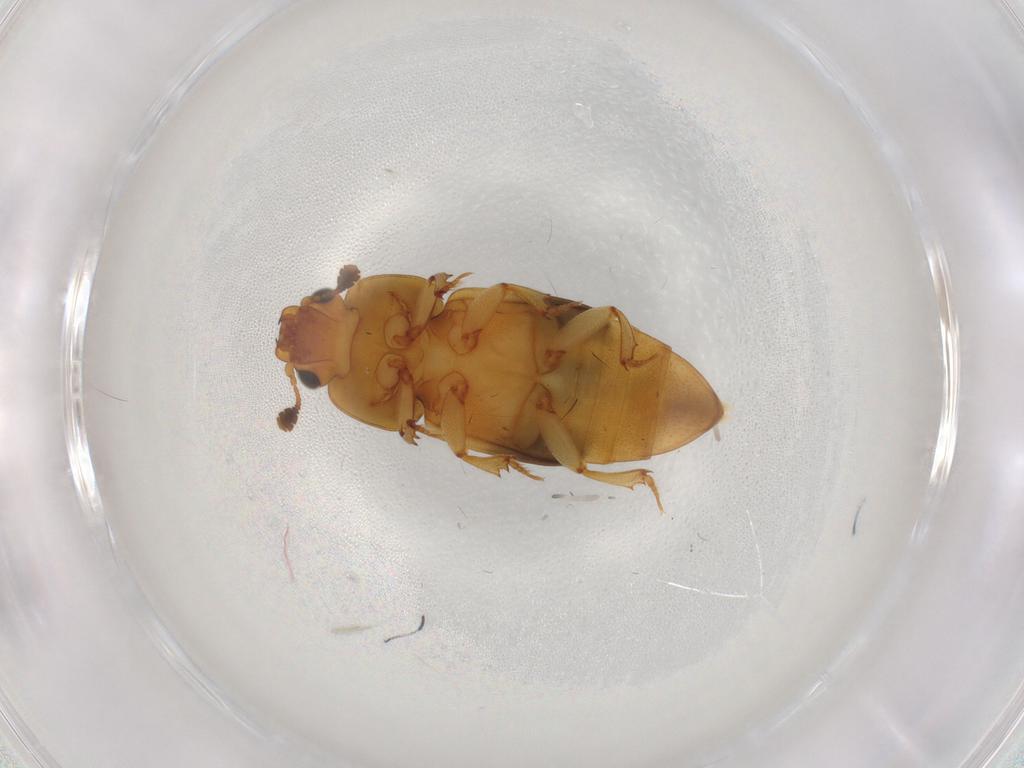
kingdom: Animalia
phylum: Arthropoda
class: Insecta
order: Coleoptera
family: Nitidulidae
